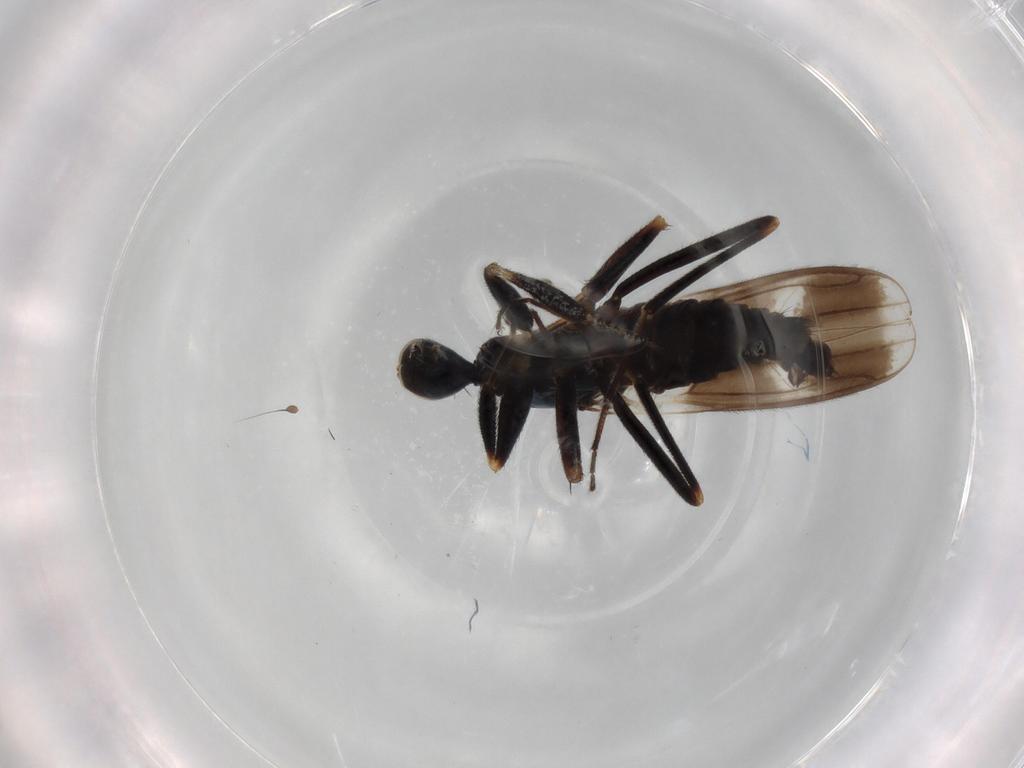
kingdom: Animalia
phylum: Arthropoda
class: Insecta
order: Diptera
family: Hybotidae
